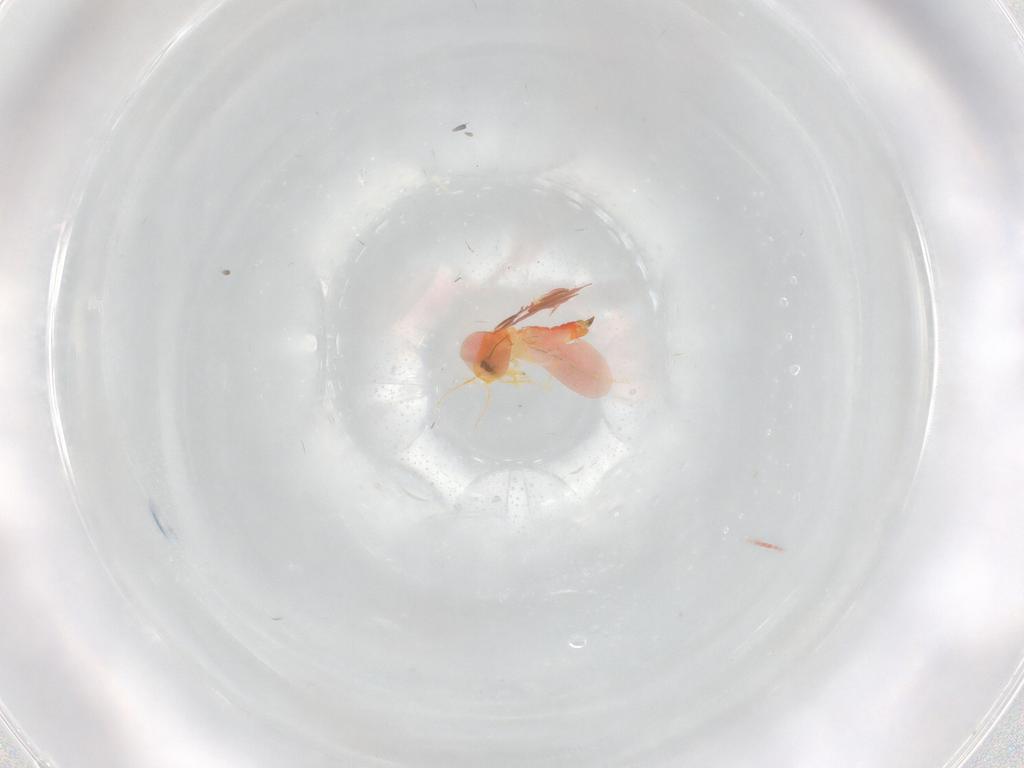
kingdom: Animalia
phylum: Arthropoda
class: Insecta
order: Hemiptera
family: Aleyrodidae
